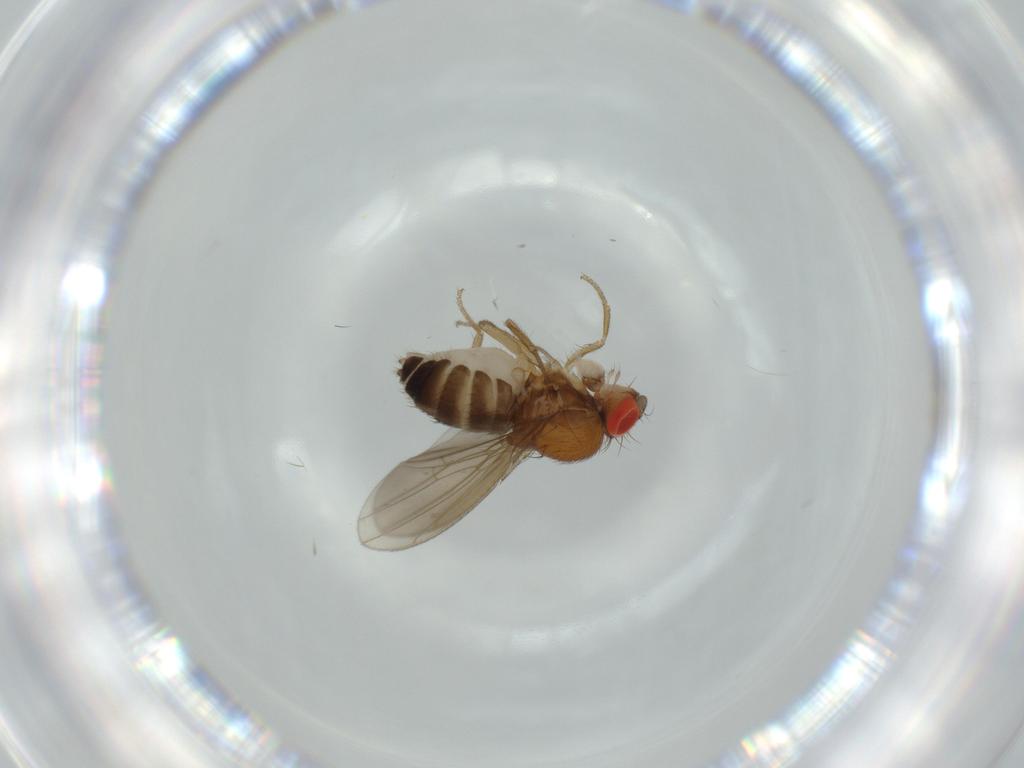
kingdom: Animalia
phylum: Arthropoda
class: Insecta
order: Diptera
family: Drosophilidae
